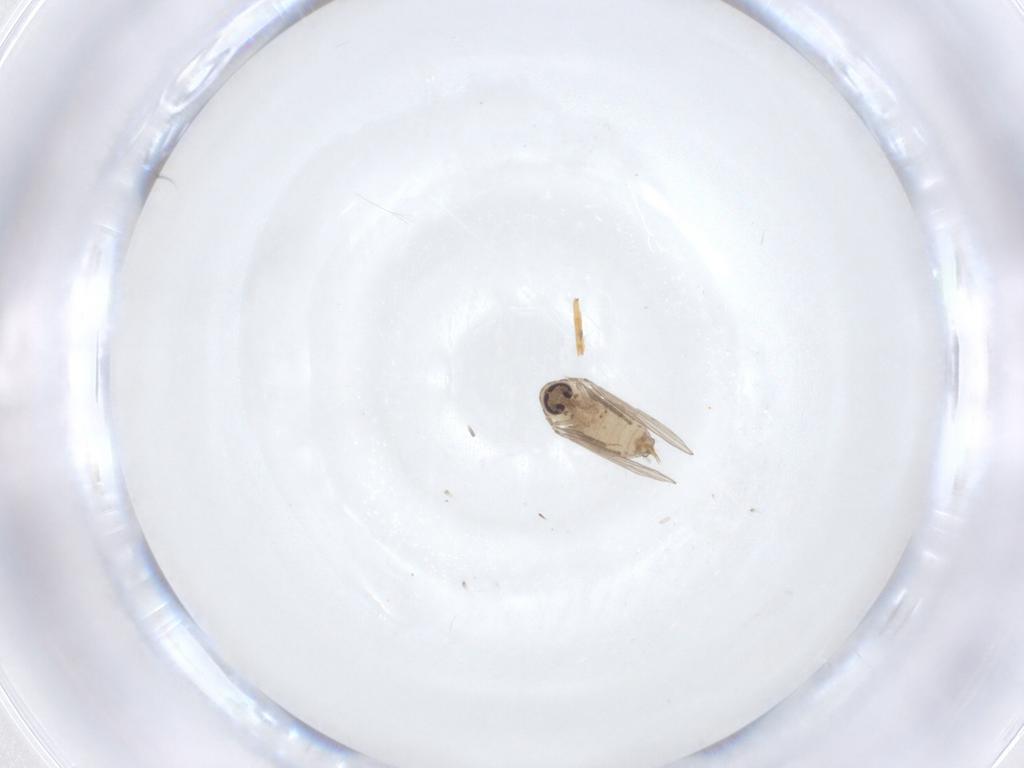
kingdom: Animalia
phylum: Arthropoda
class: Insecta
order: Diptera
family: Psychodidae
